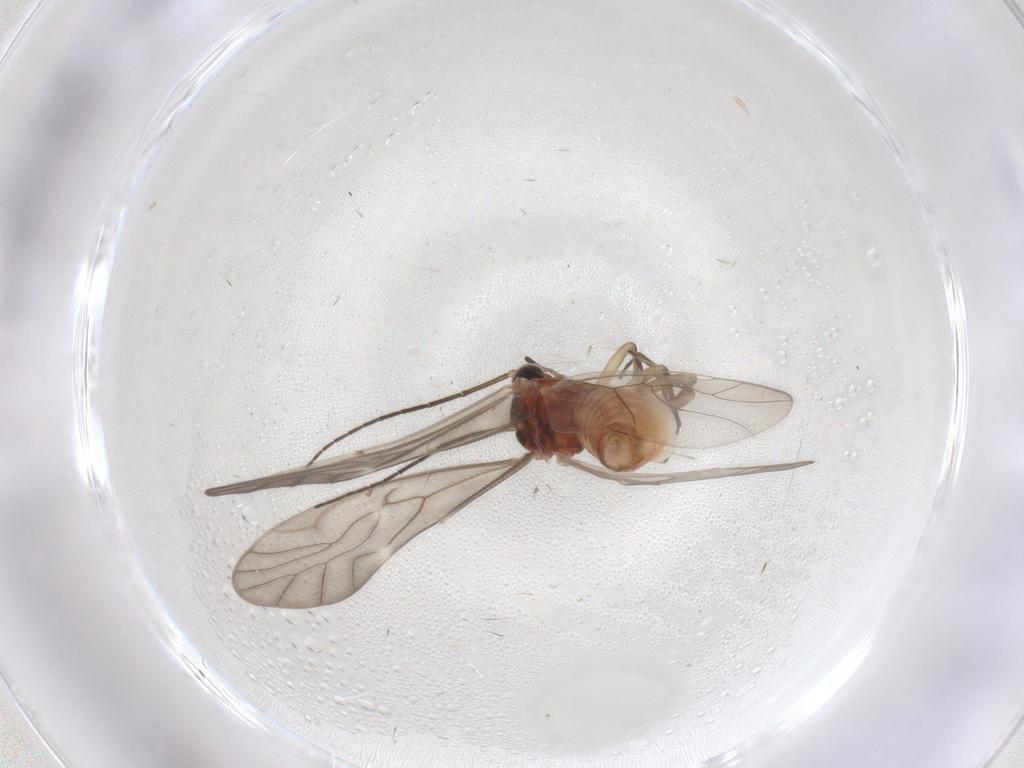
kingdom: Animalia
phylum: Arthropoda
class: Insecta
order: Psocodea
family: Caeciliusidae
